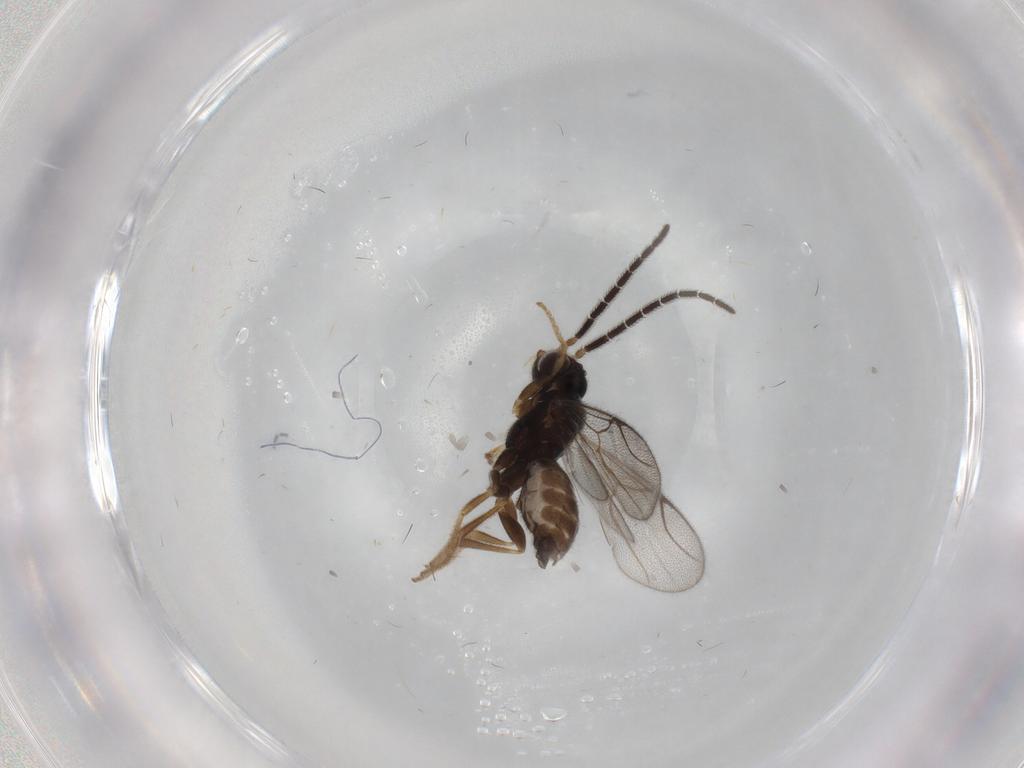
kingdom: Animalia
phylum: Arthropoda
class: Insecta
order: Hymenoptera
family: Dryinidae
